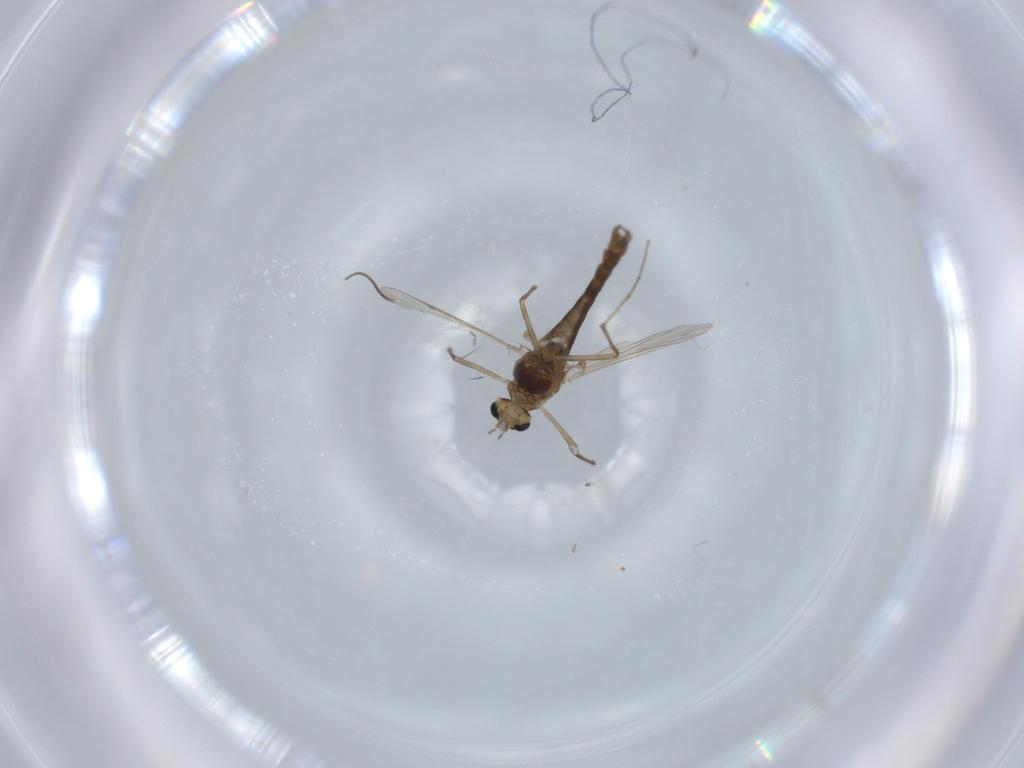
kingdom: Animalia
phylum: Arthropoda
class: Insecta
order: Diptera
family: Chironomidae
